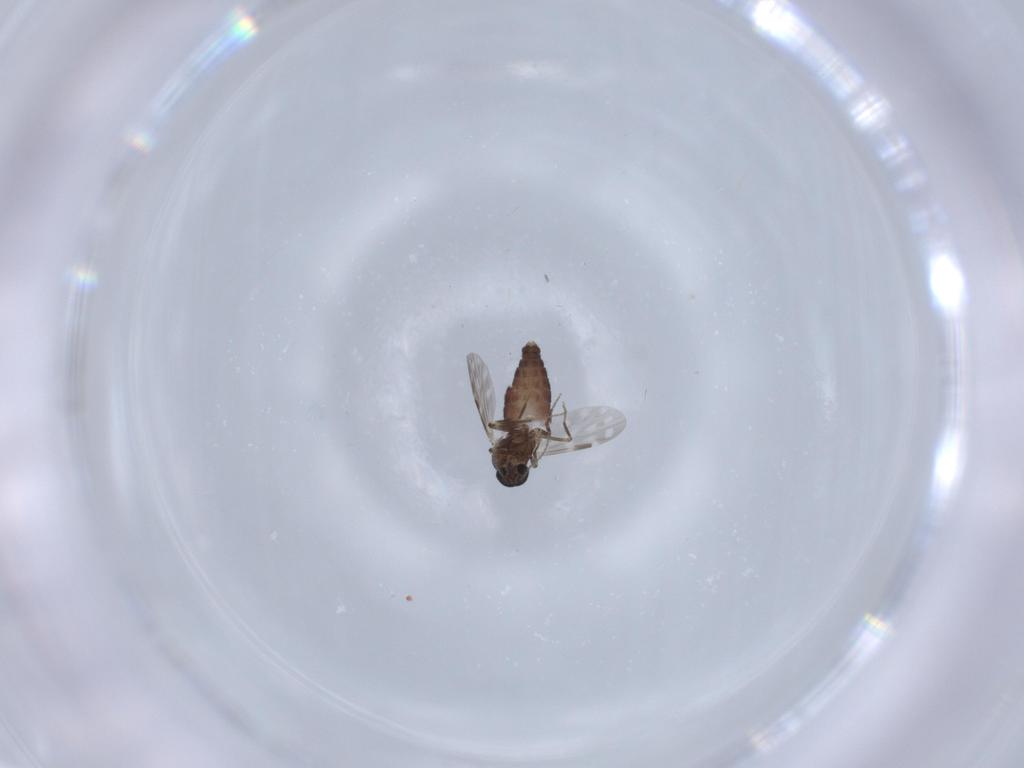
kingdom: Animalia
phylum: Arthropoda
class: Insecta
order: Diptera
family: Ceratopogonidae
